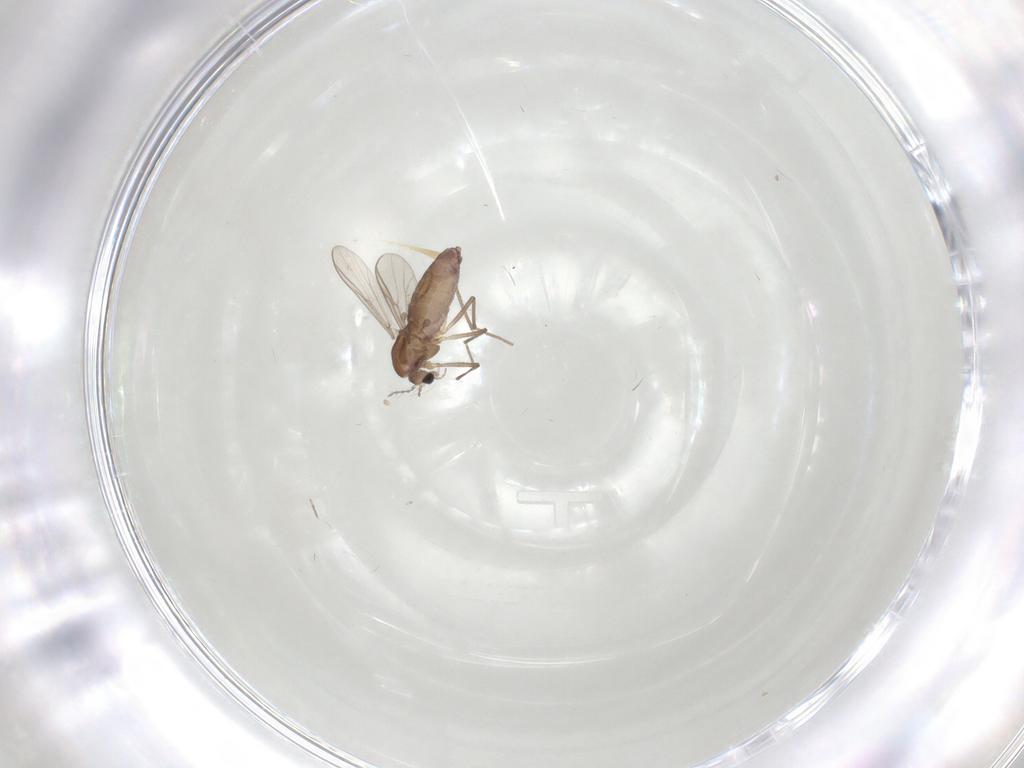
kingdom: Animalia
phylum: Arthropoda
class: Insecta
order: Diptera
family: Chironomidae
